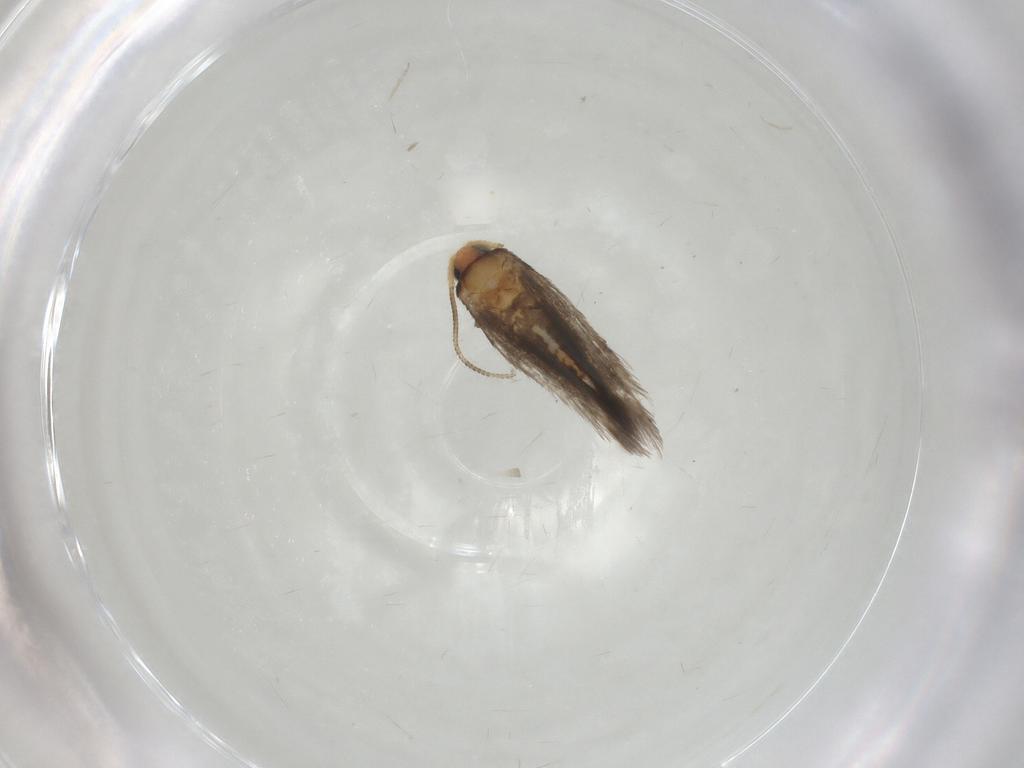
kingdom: Animalia
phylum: Arthropoda
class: Insecta
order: Lepidoptera
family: Nepticulidae
